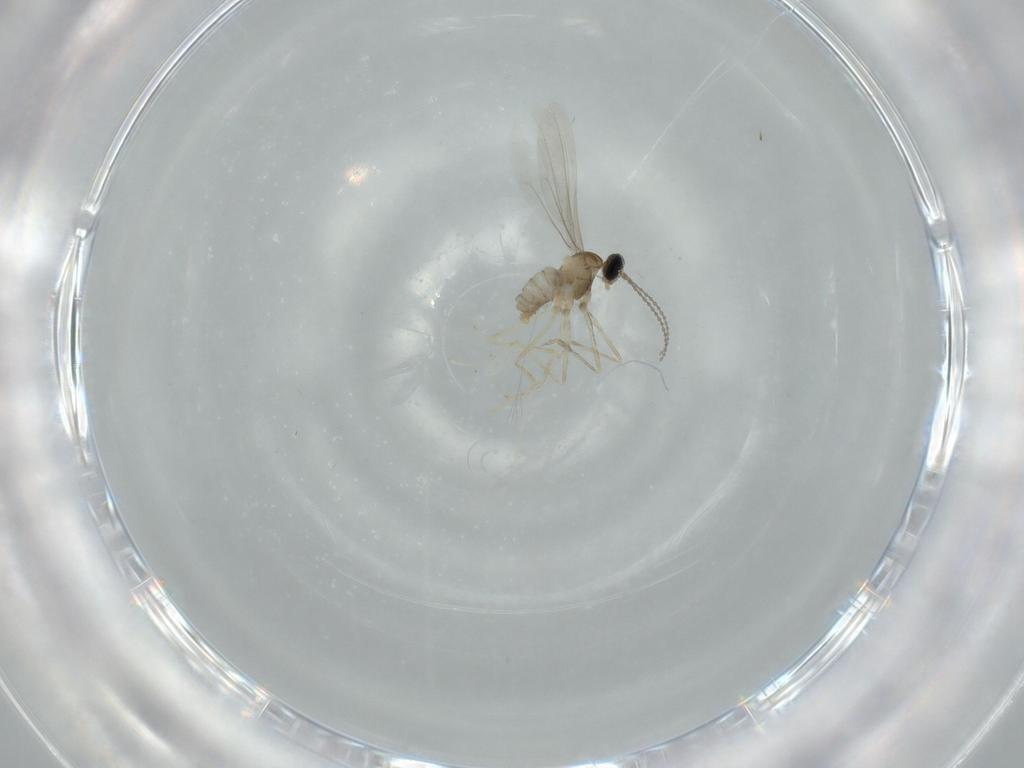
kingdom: Animalia
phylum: Arthropoda
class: Insecta
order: Diptera
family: Cecidomyiidae
